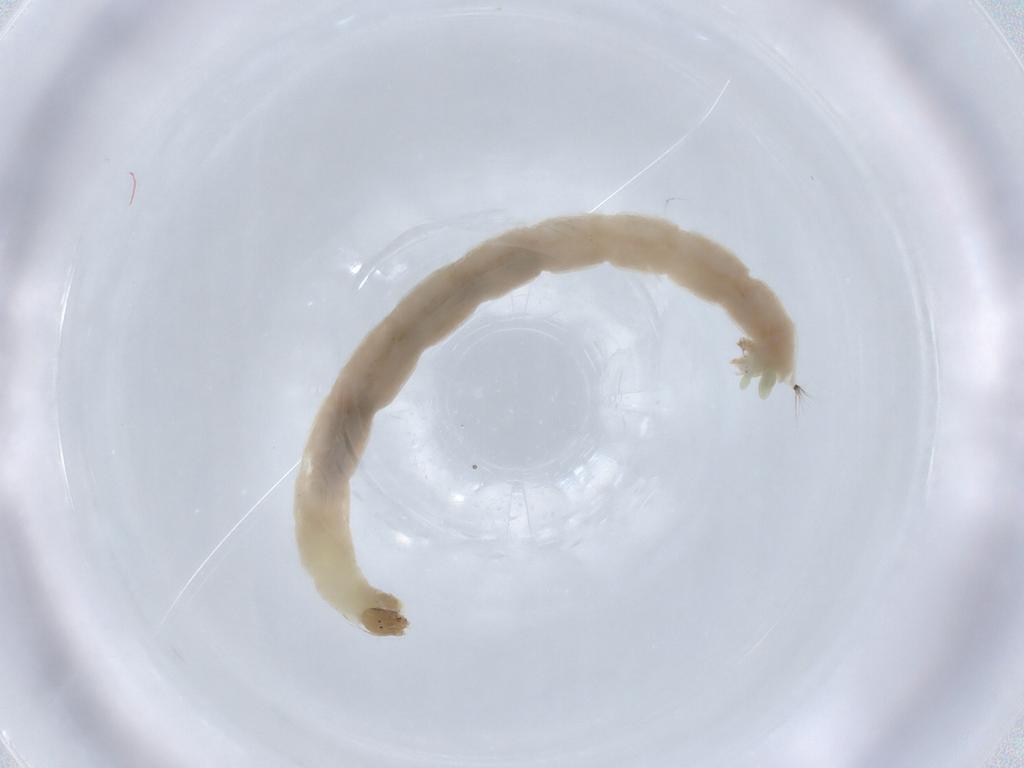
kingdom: Animalia
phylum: Arthropoda
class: Insecta
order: Diptera
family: Chironomidae
